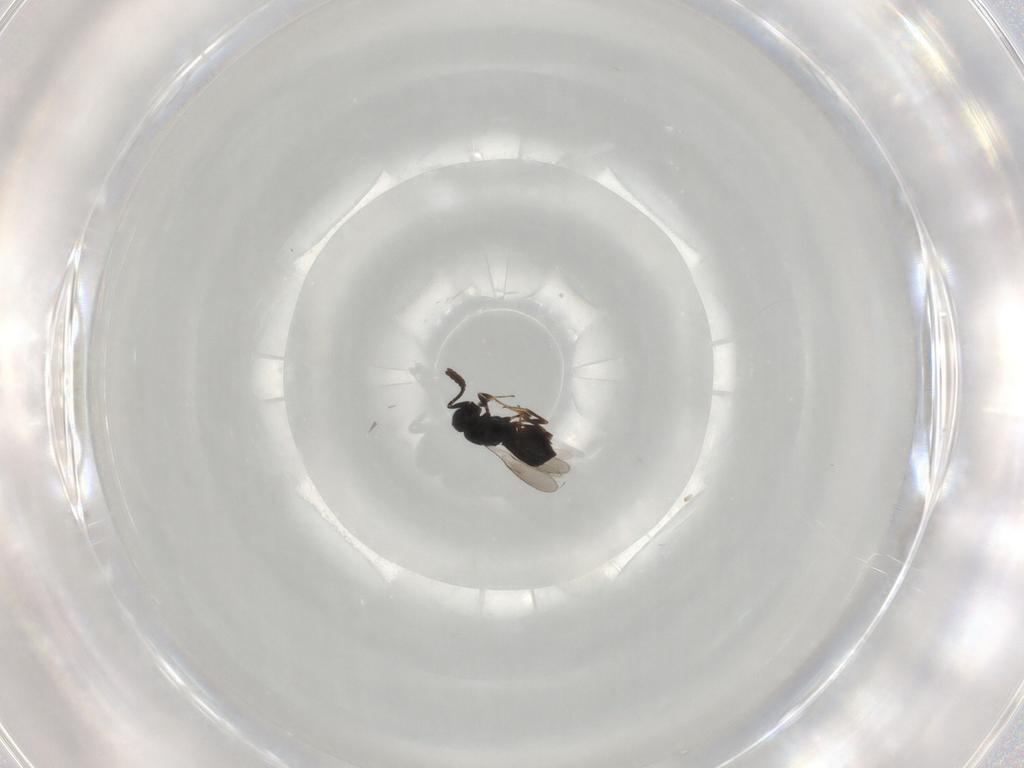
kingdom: Animalia
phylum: Arthropoda
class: Insecta
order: Hymenoptera
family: Scelionidae
